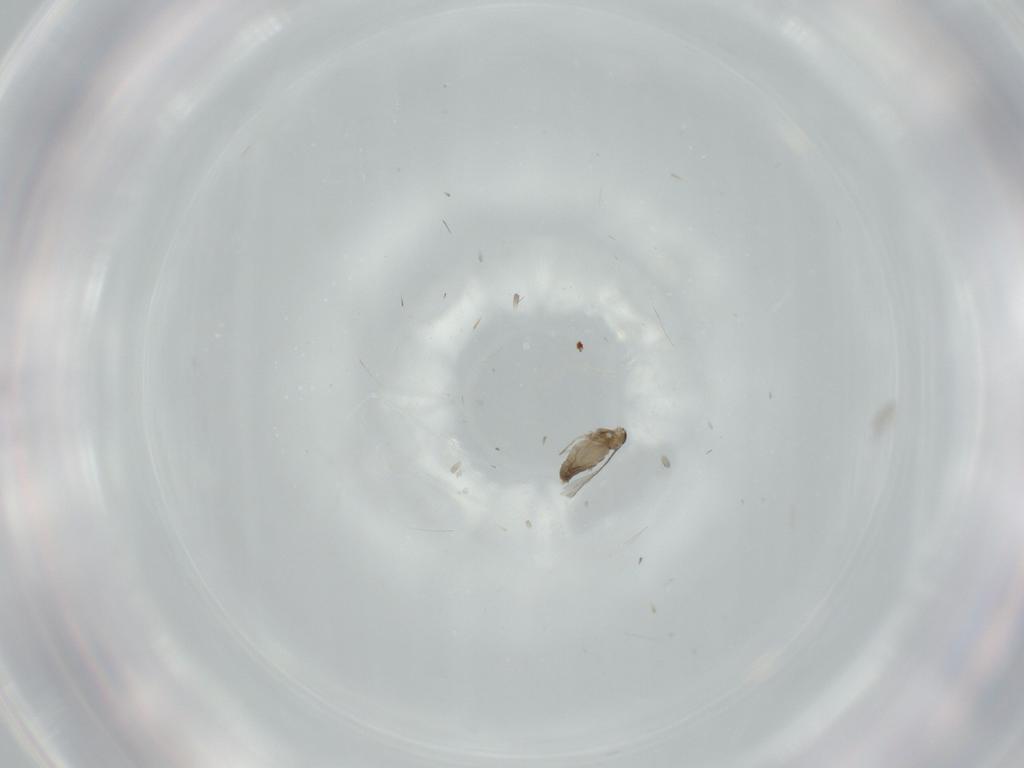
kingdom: Animalia
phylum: Arthropoda
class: Insecta
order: Diptera
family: Cecidomyiidae
